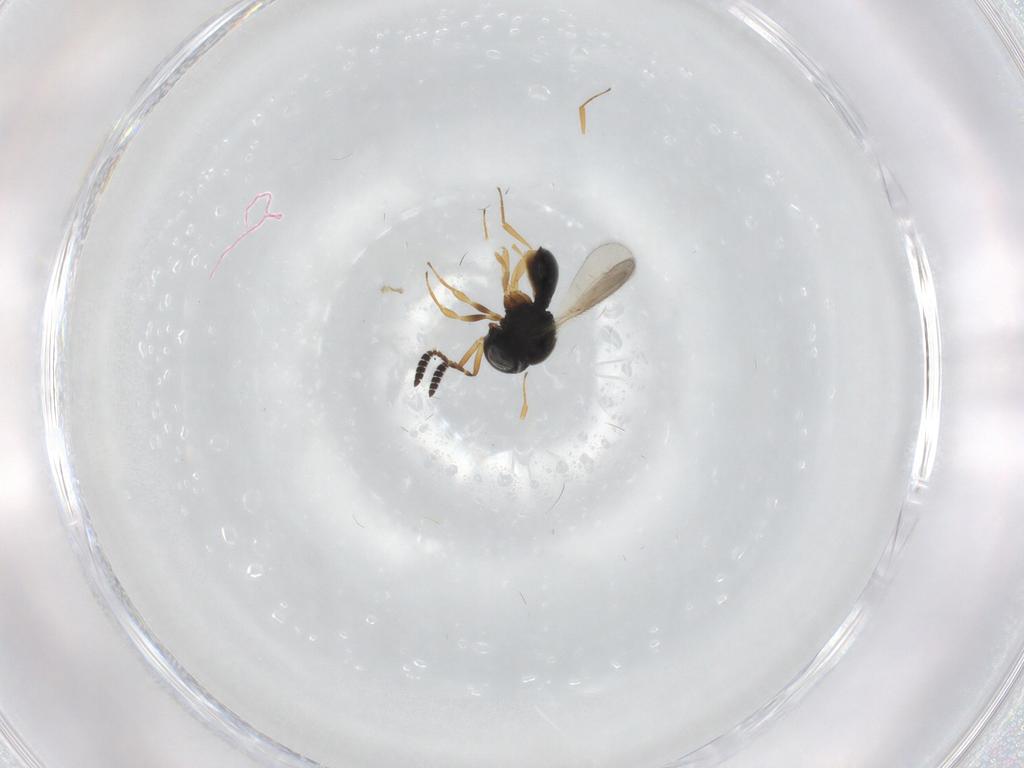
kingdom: Animalia
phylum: Arthropoda
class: Insecta
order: Hymenoptera
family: Scelionidae
